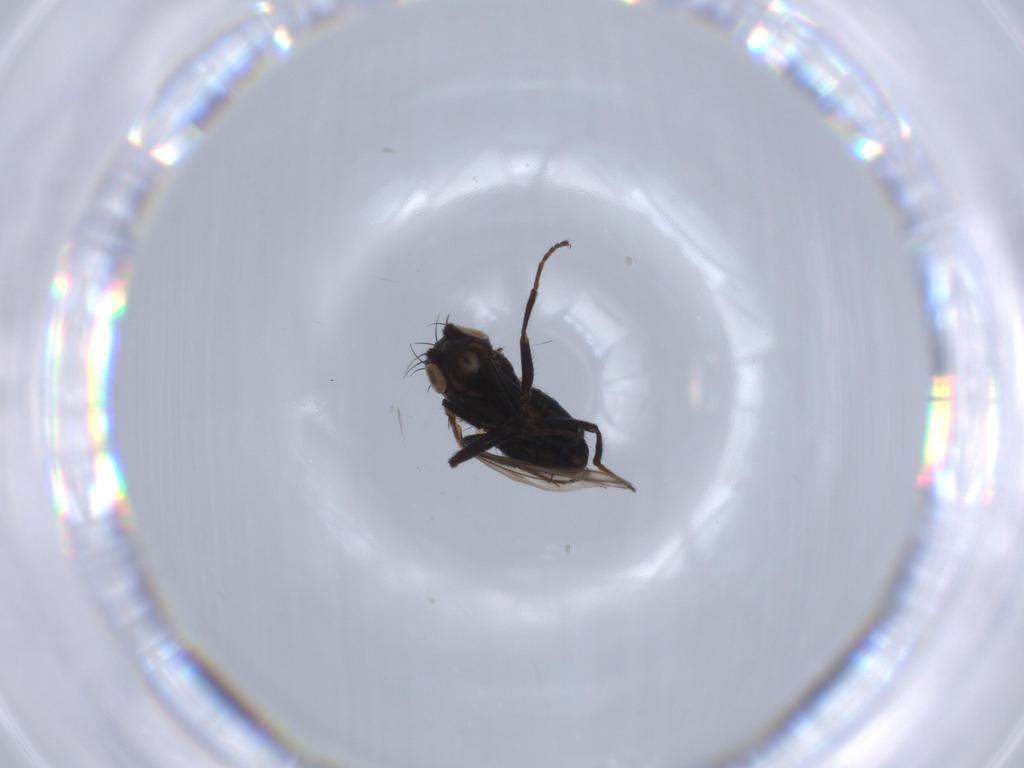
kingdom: Animalia
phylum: Arthropoda
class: Insecta
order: Diptera
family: Ephydridae
